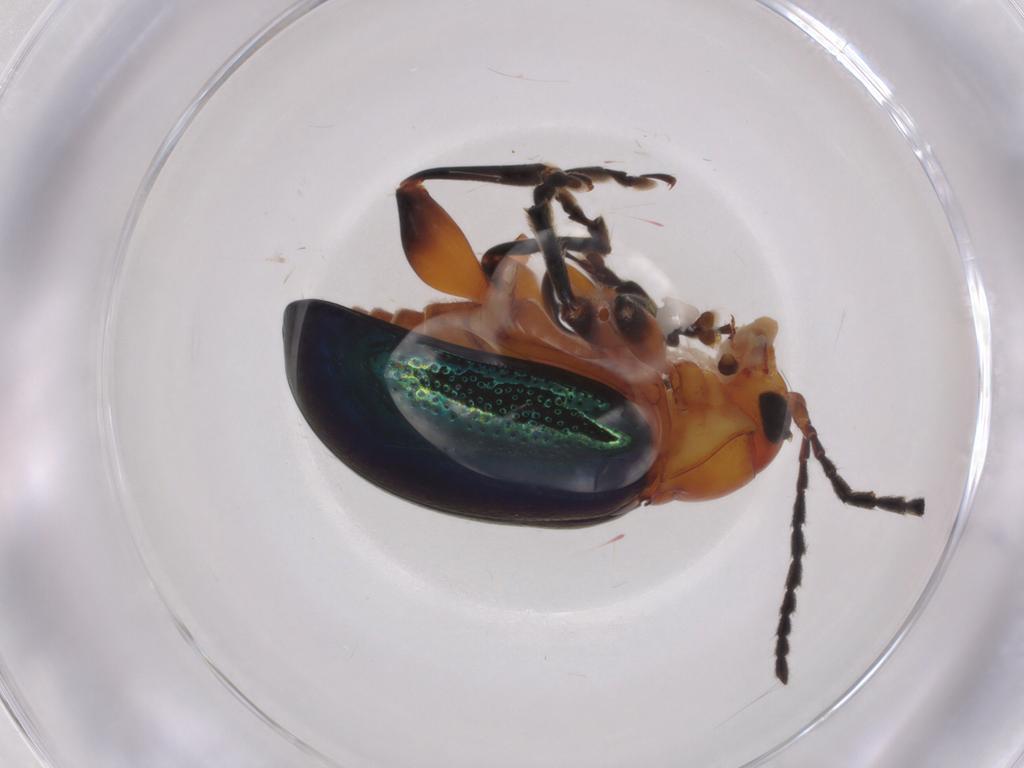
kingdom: Animalia
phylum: Arthropoda
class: Insecta
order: Coleoptera
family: Chrysomelidae
